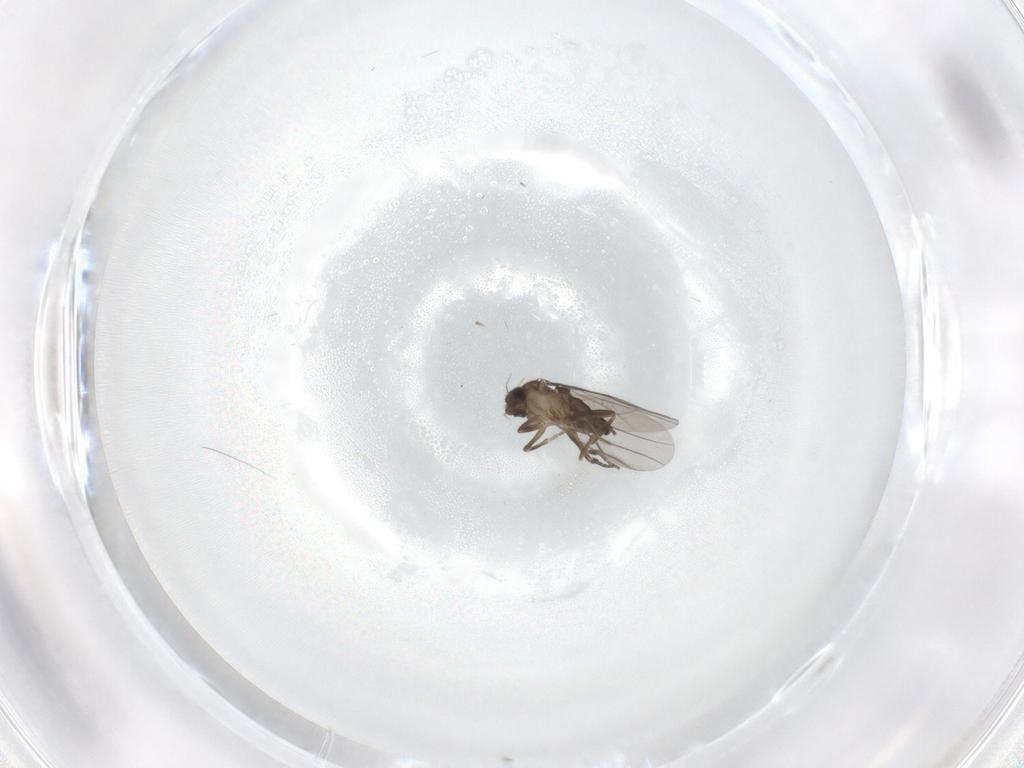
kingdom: Animalia
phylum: Arthropoda
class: Insecta
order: Diptera
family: Phoridae
